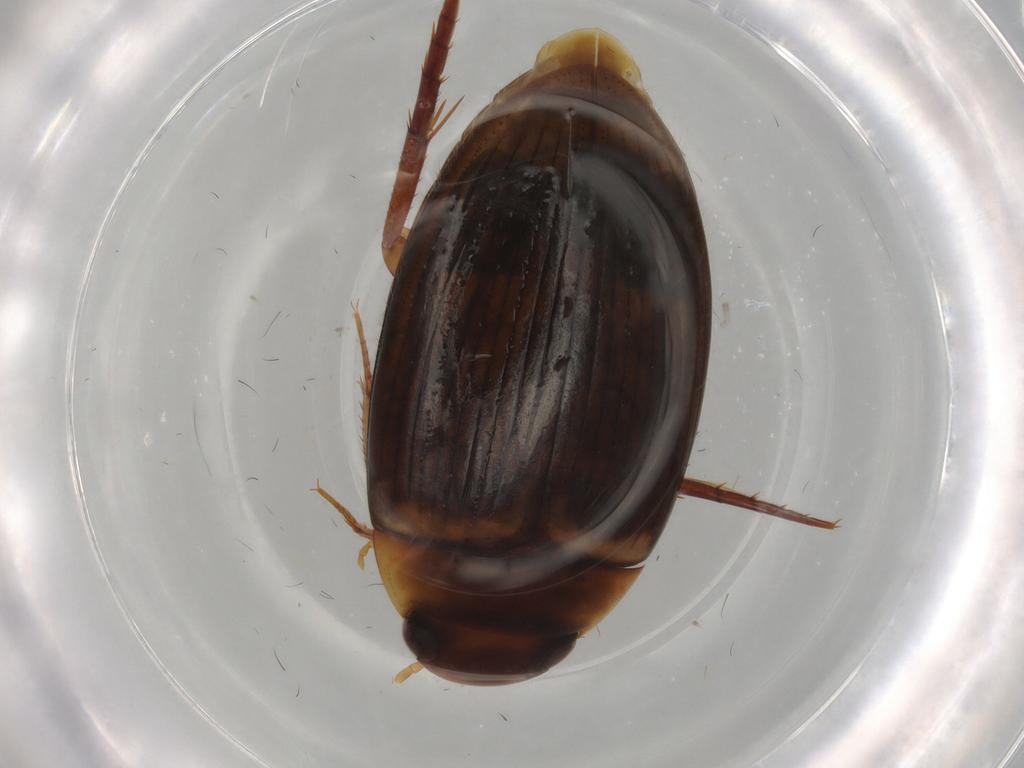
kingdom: Animalia
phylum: Arthropoda
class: Insecta
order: Coleoptera
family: Dytiscidae
